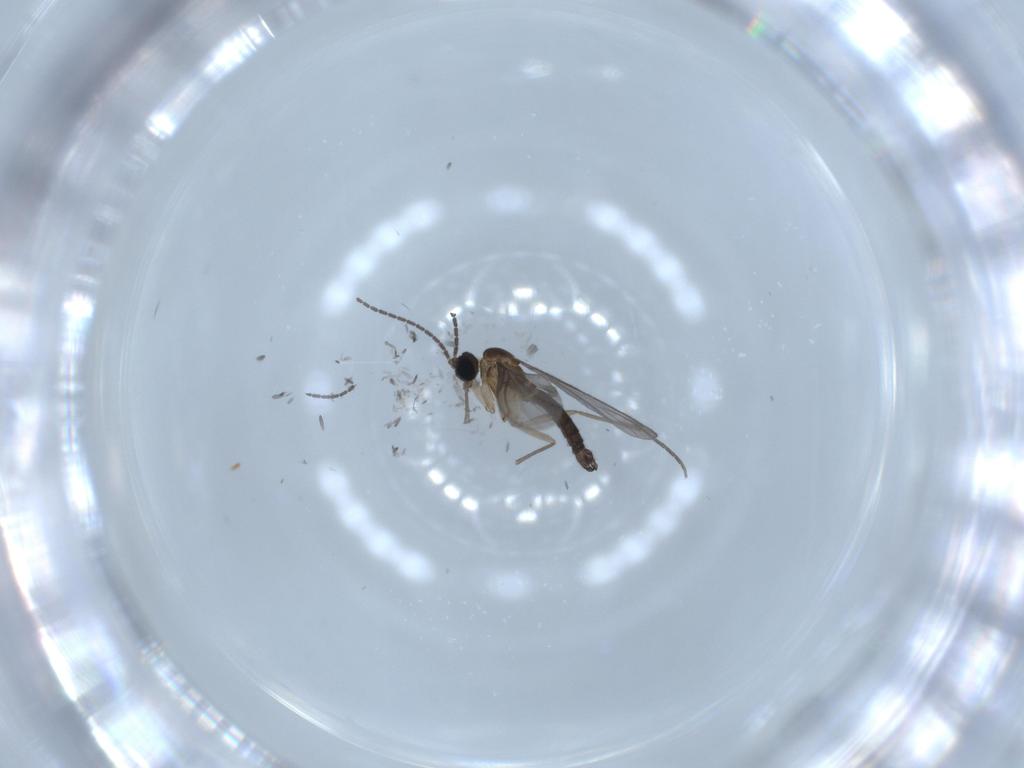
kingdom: Animalia
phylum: Arthropoda
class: Insecta
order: Diptera
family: Sciaridae
